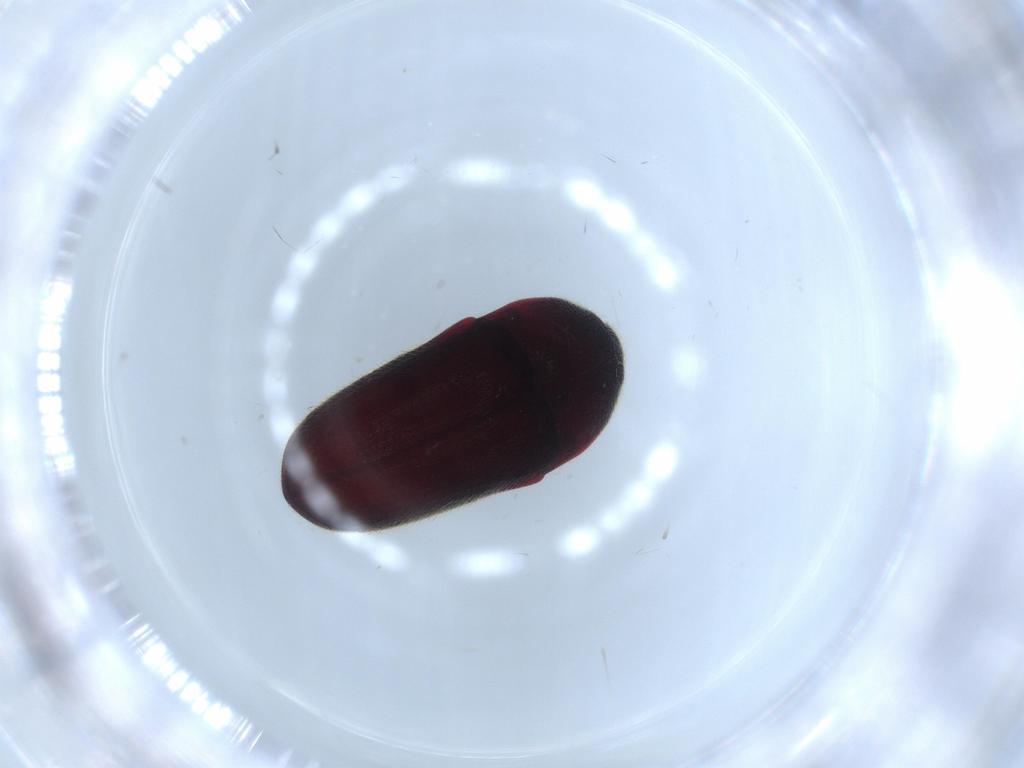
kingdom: Animalia
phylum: Arthropoda
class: Insecta
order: Coleoptera
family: Throscidae
